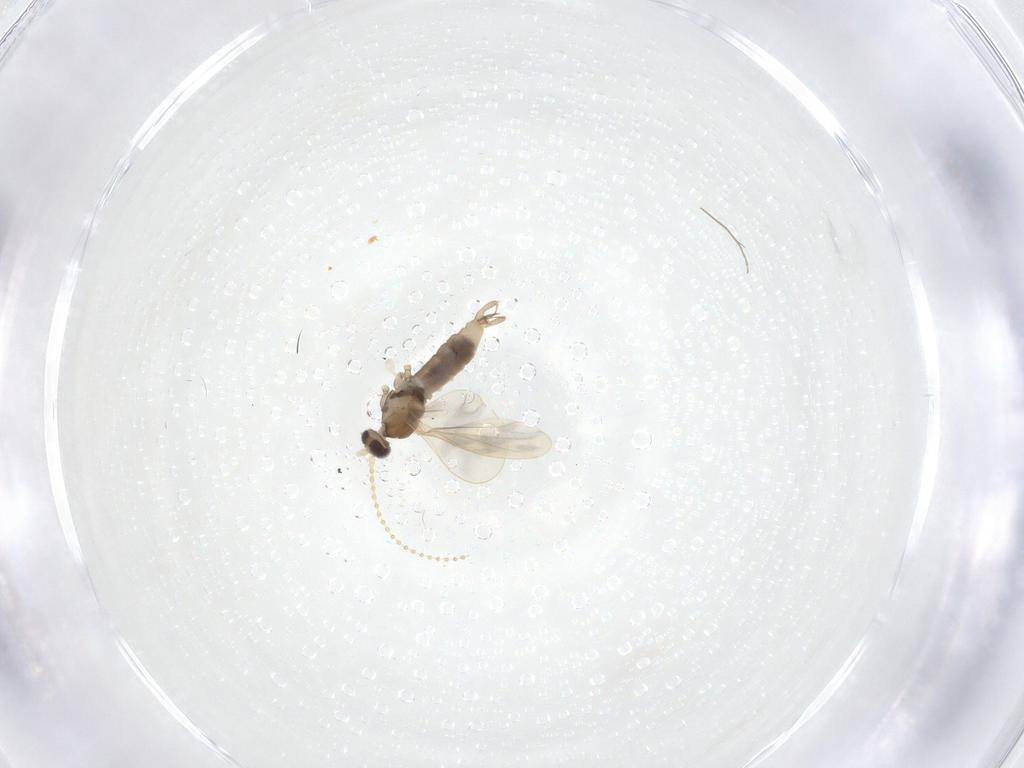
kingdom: Animalia
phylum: Arthropoda
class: Insecta
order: Diptera
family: Cecidomyiidae
